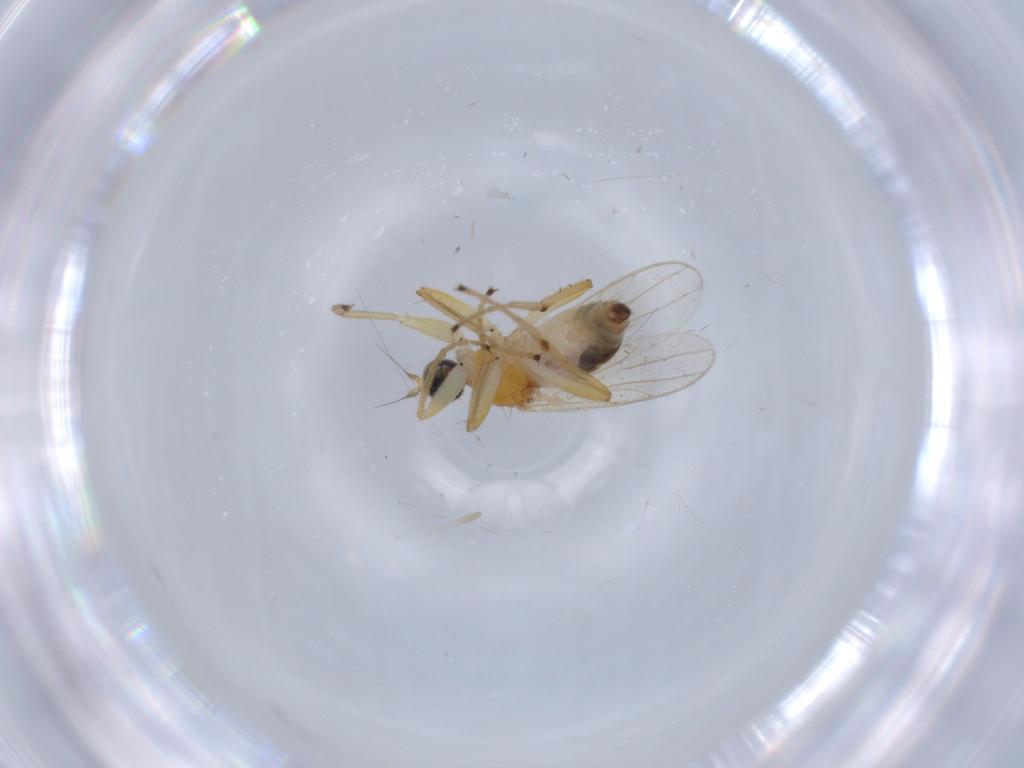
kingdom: Animalia
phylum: Arthropoda
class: Insecta
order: Diptera
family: Hybotidae
